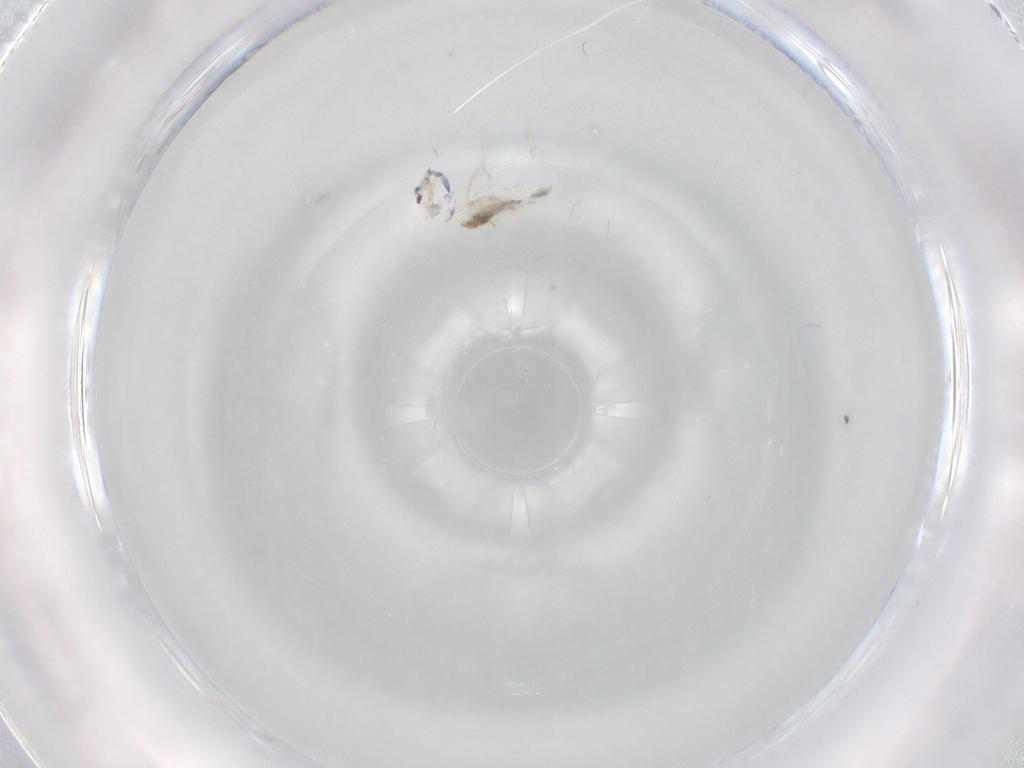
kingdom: Animalia
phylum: Arthropoda
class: Collembola
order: Entomobryomorpha
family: Entomobryidae
